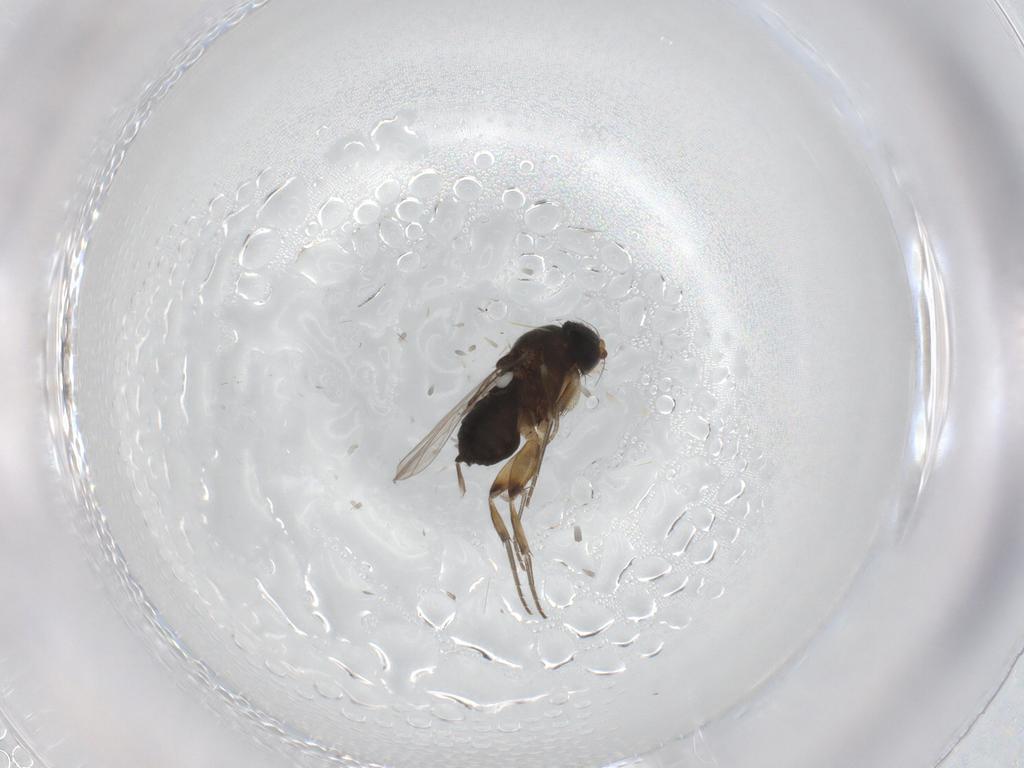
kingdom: Animalia
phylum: Arthropoda
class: Insecta
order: Diptera
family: Phoridae
